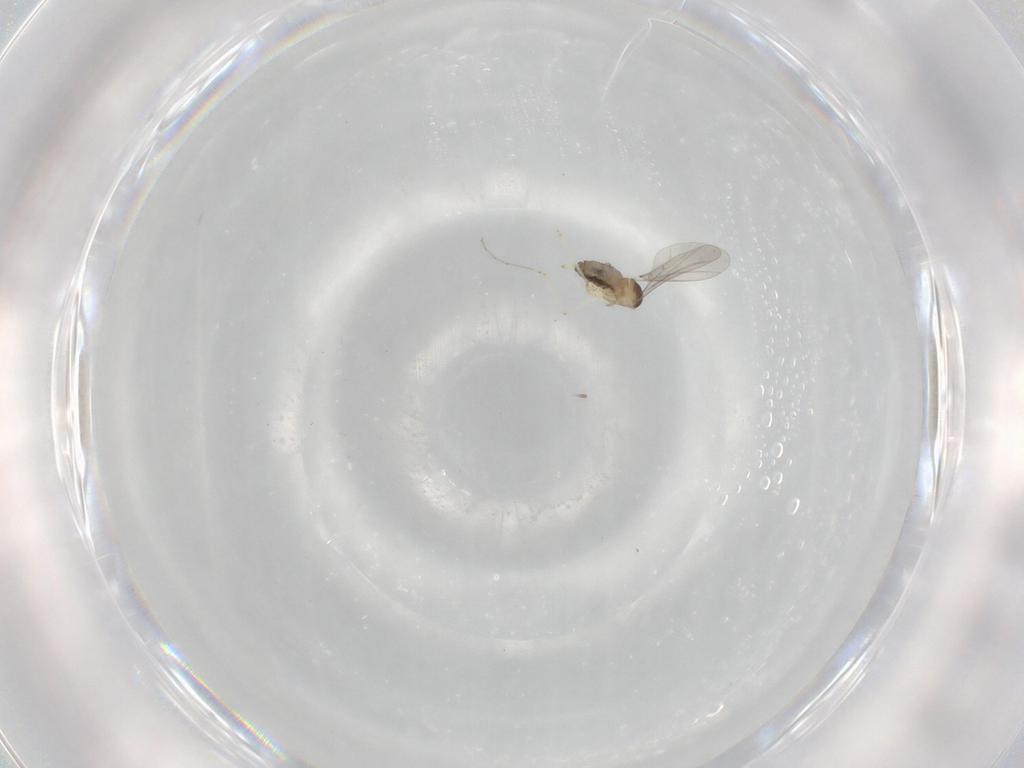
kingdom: Animalia
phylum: Arthropoda
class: Insecta
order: Diptera
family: Cecidomyiidae
